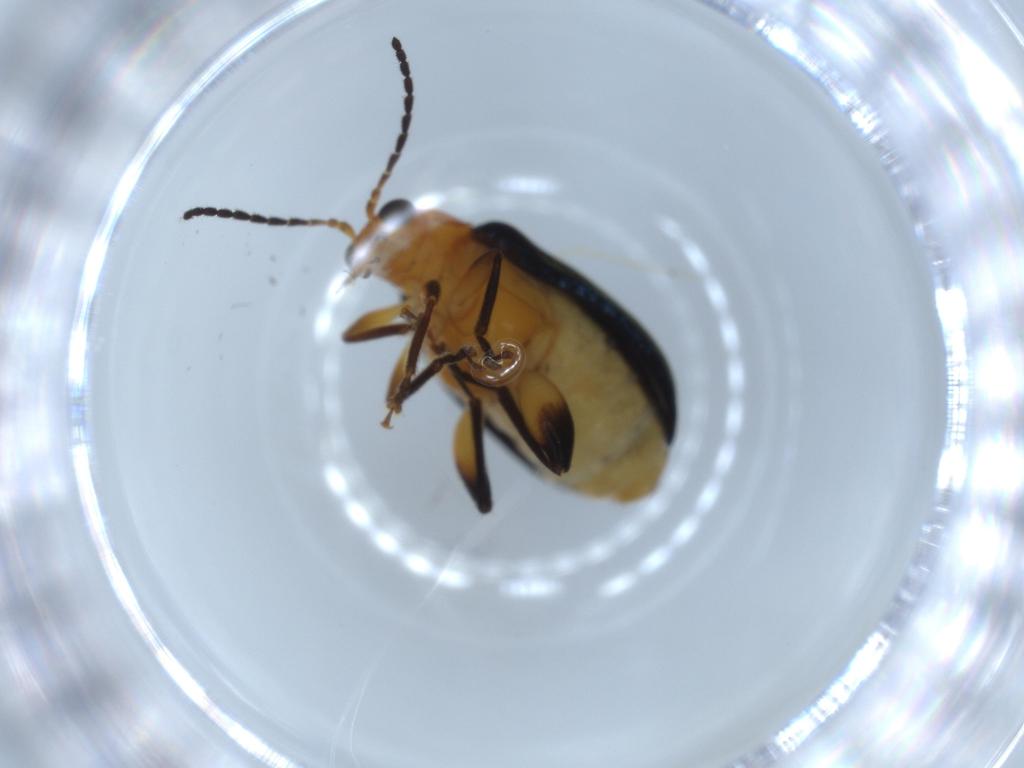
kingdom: Animalia
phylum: Arthropoda
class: Insecta
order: Coleoptera
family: Chrysomelidae
